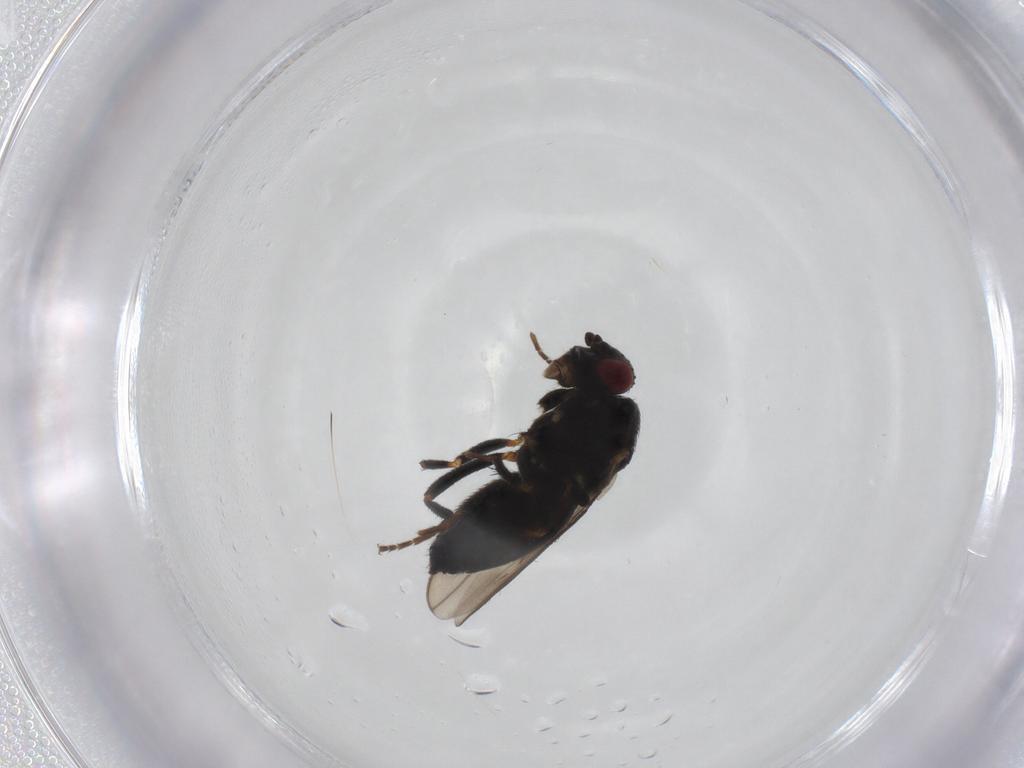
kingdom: Animalia
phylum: Arthropoda
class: Insecta
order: Diptera
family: Sphaeroceridae
